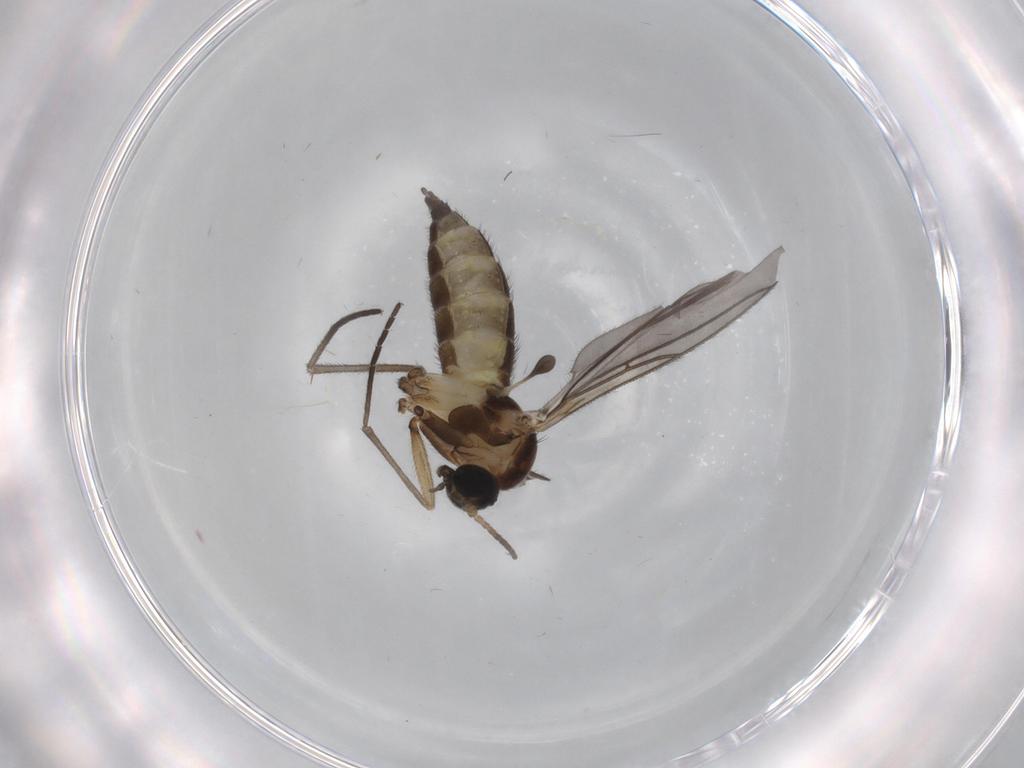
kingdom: Animalia
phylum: Arthropoda
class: Insecta
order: Diptera
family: Sciaridae
